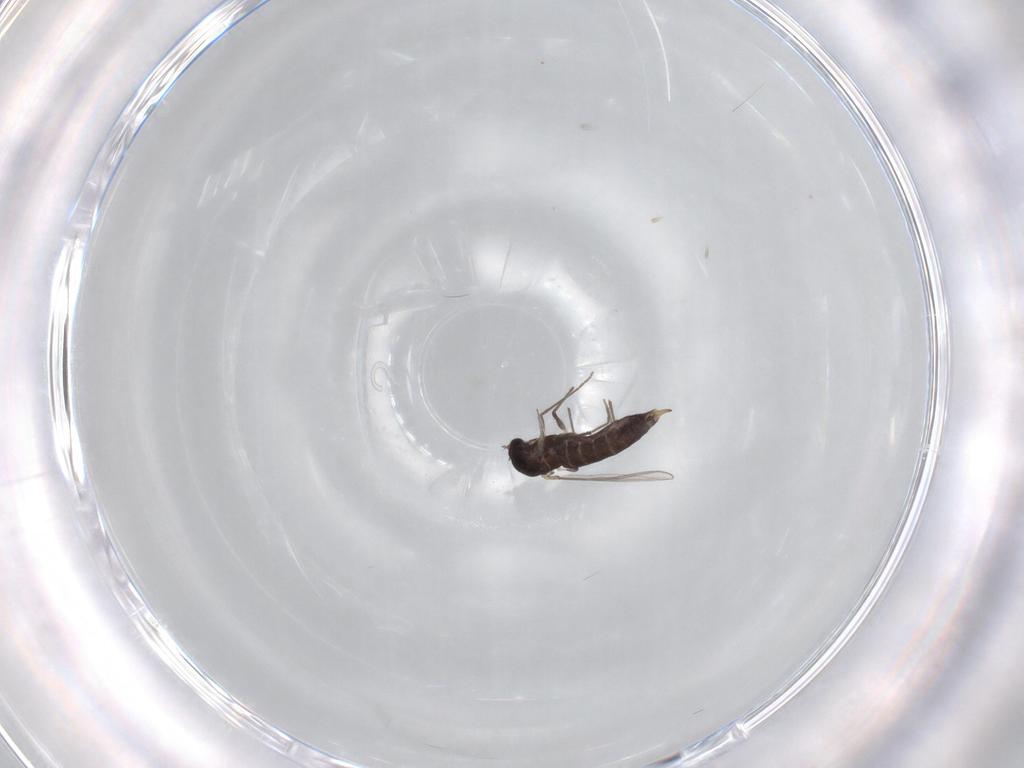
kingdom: Animalia
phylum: Arthropoda
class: Insecta
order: Diptera
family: Chironomidae
